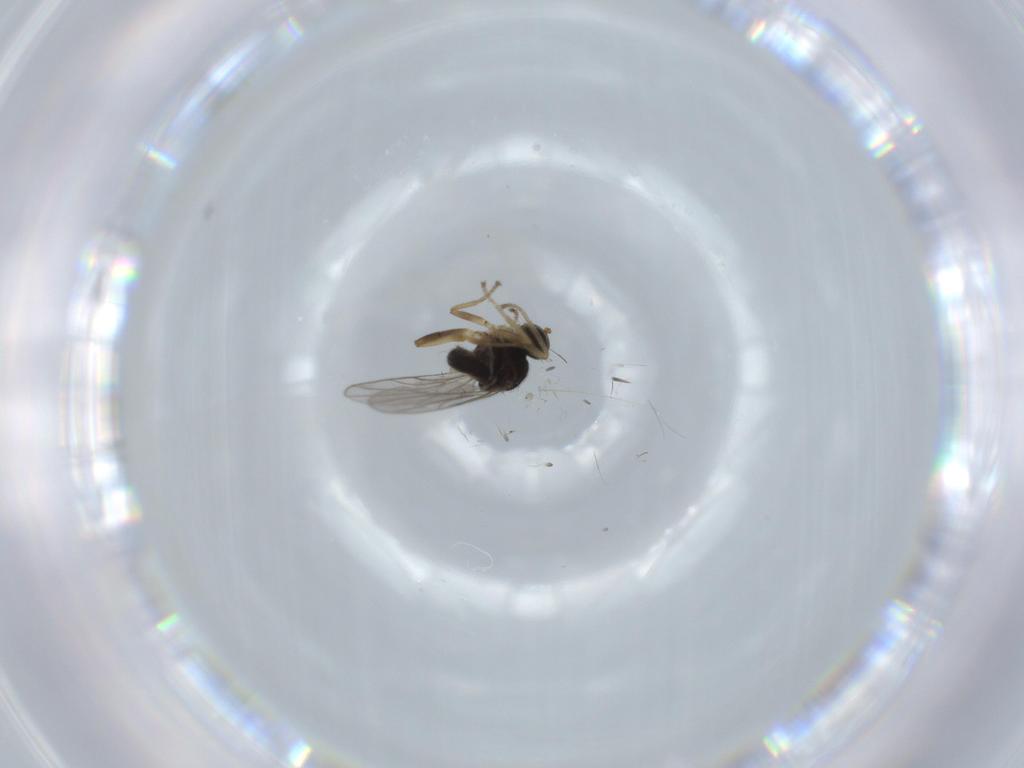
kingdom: Animalia
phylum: Arthropoda
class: Insecta
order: Diptera
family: Hybotidae
